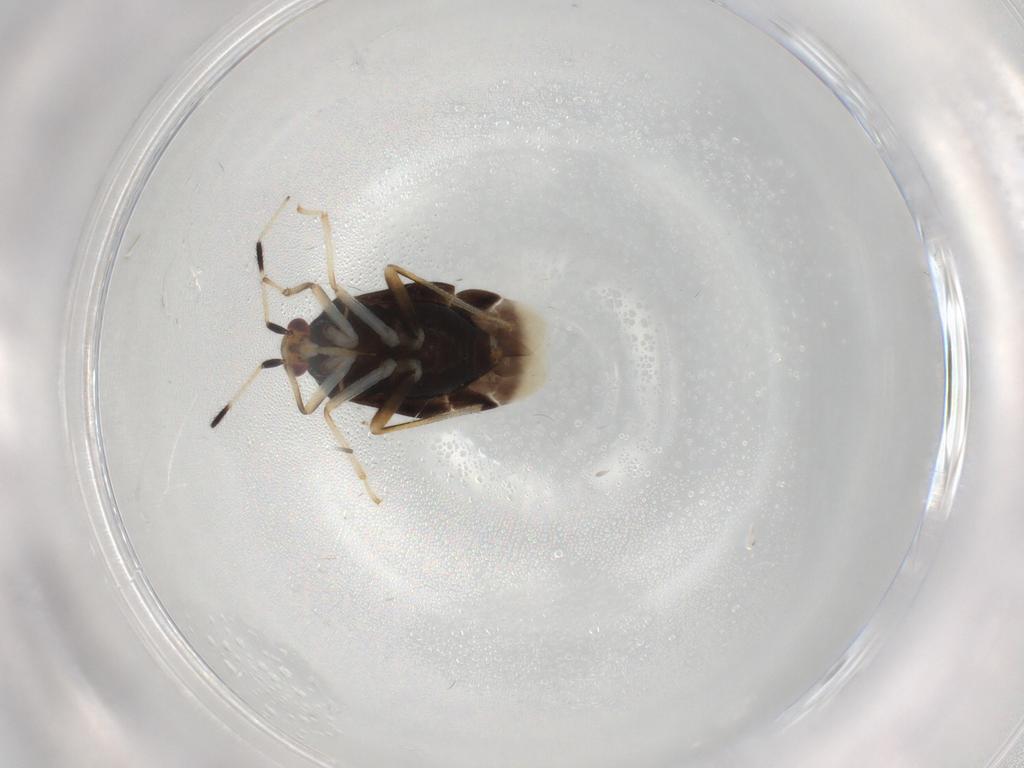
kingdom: Animalia
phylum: Arthropoda
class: Insecta
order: Hemiptera
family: Cicadellidae
